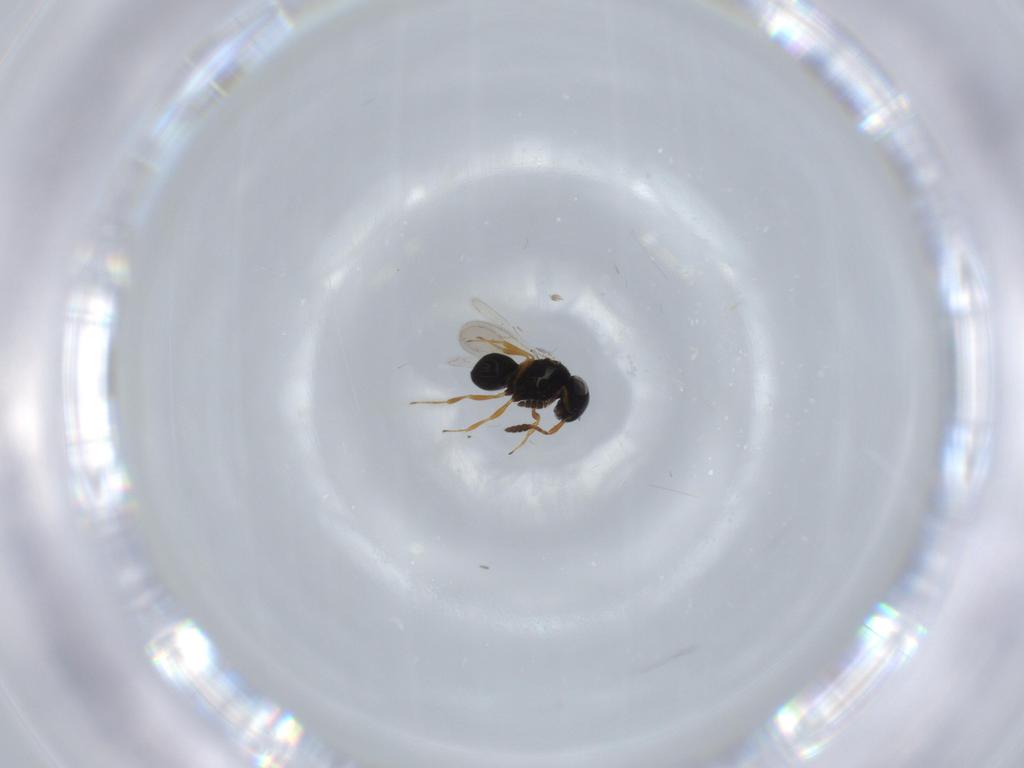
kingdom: Animalia
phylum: Arthropoda
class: Insecta
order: Hymenoptera
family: Scelionidae
